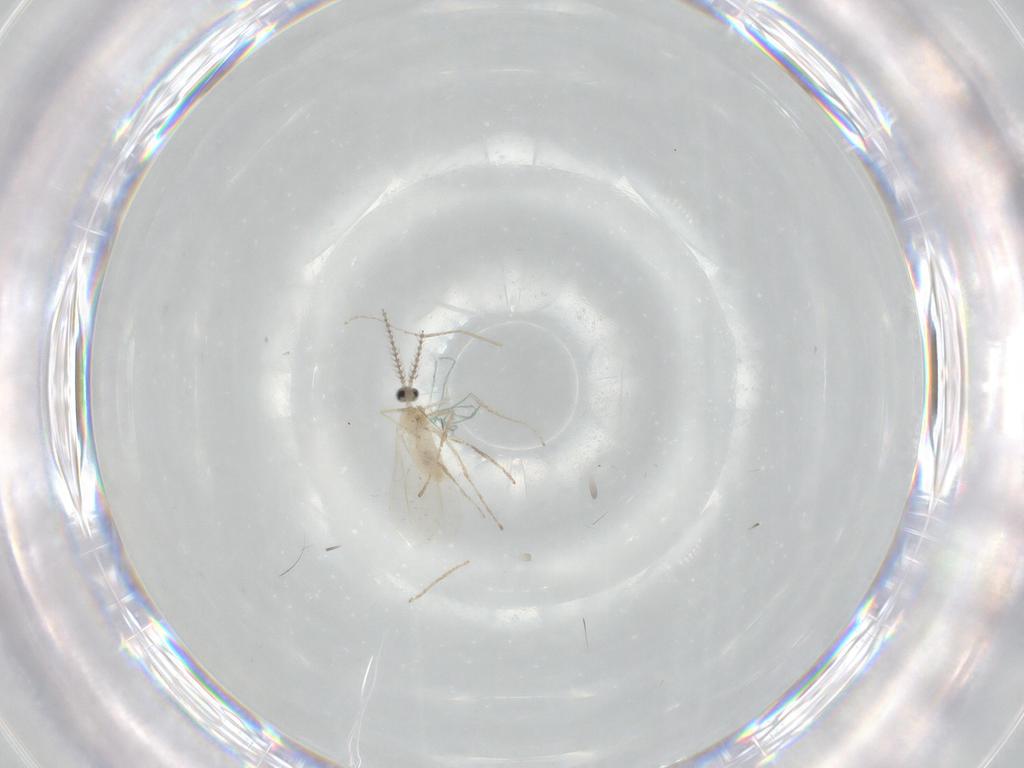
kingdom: Animalia
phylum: Arthropoda
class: Insecta
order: Diptera
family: Cecidomyiidae
